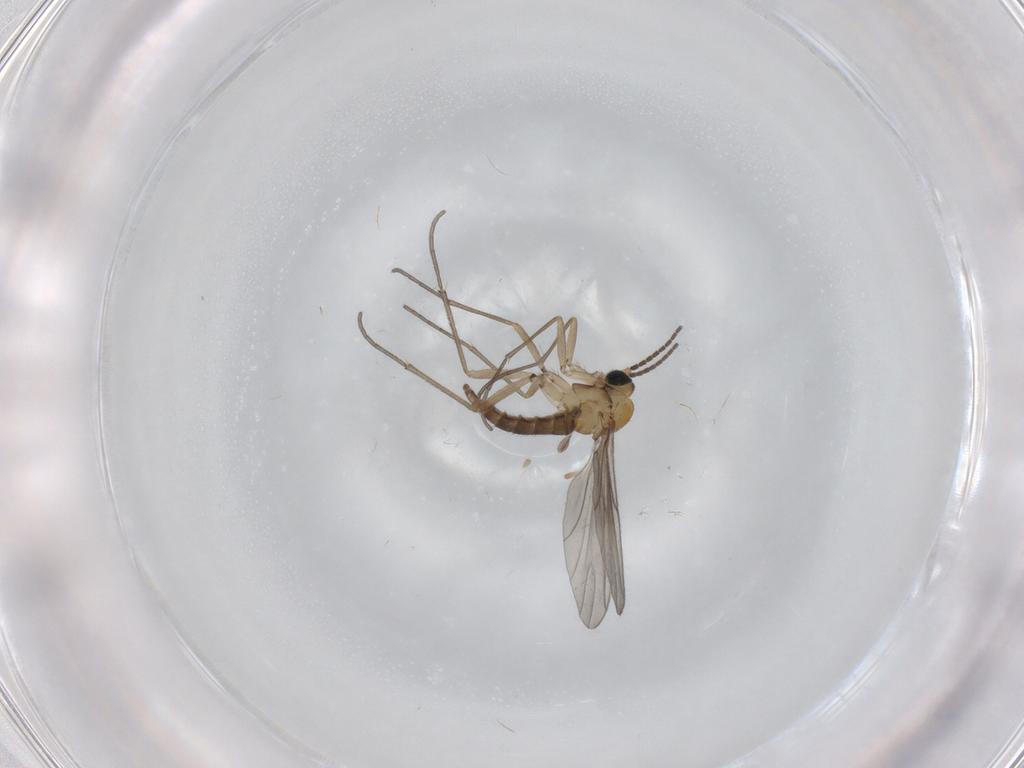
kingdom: Animalia
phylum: Arthropoda
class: Insecta
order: Diptera
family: Sciaridae
